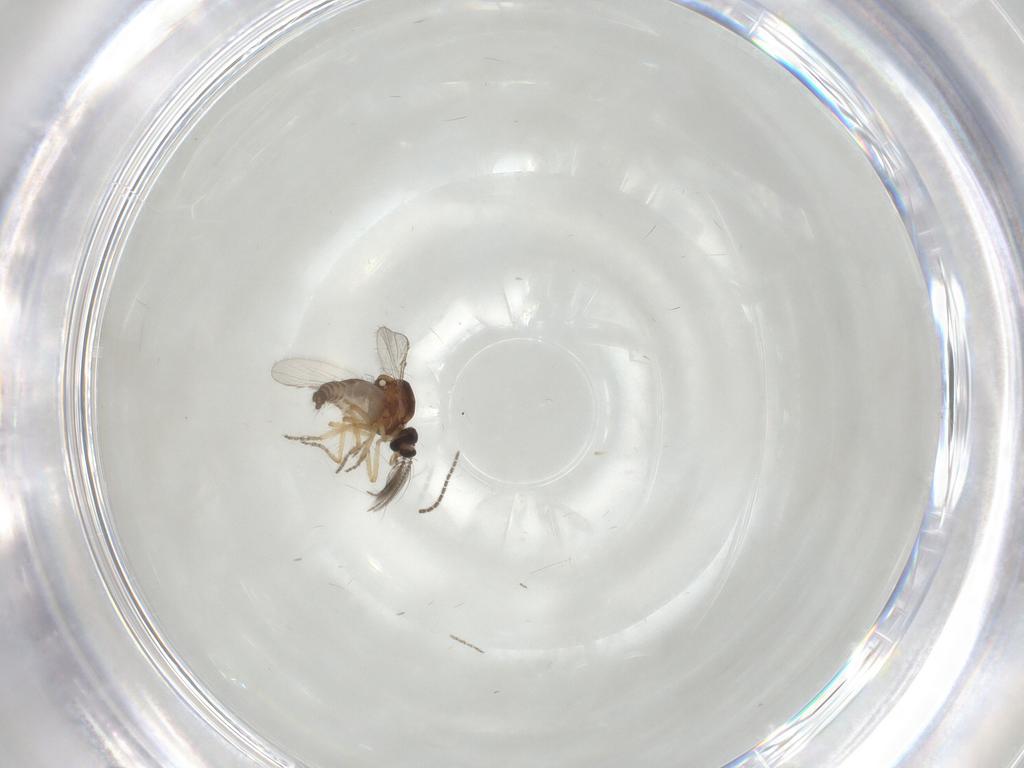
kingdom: Animalia
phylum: Arthropoda
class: Insecta
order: Diptera
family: Ceratopogonidae
